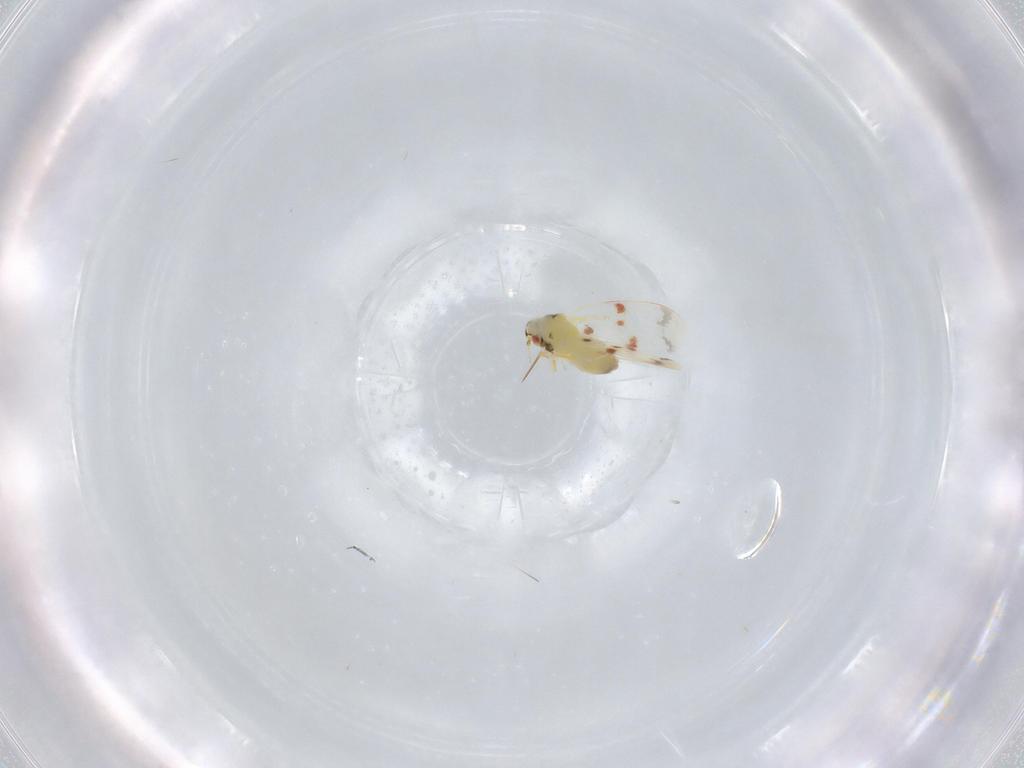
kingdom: Animalia
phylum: Arthropoda
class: Insecta
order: Hemiptera
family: Aleyrodidae
